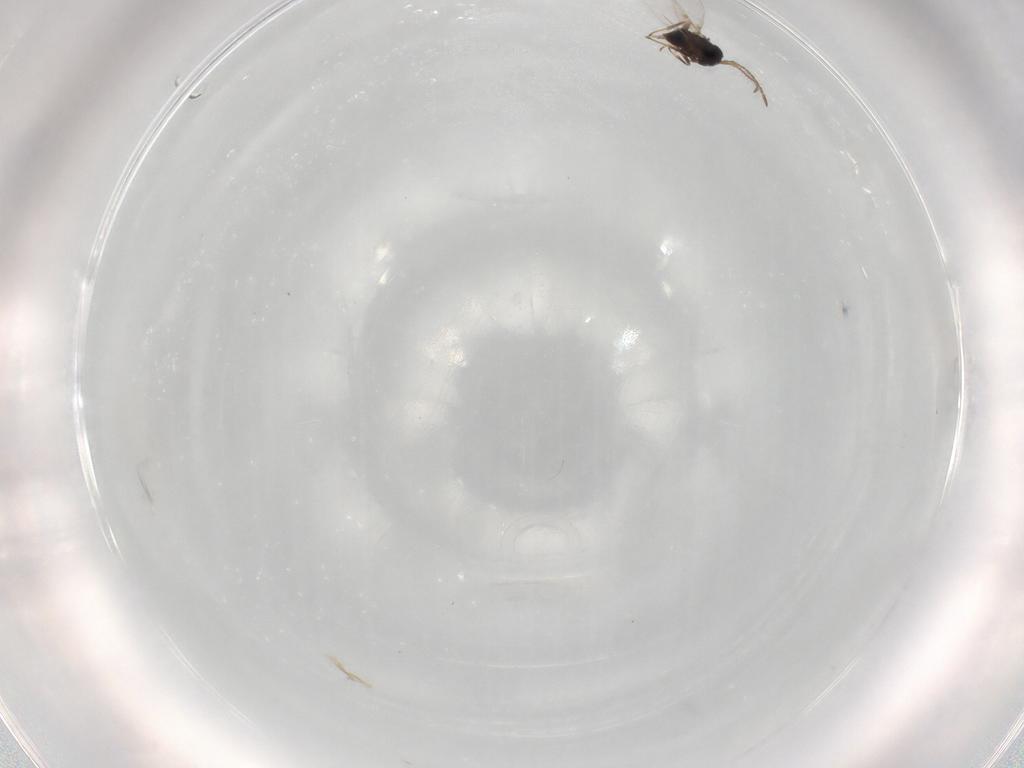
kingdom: Animalia
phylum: Arthropoda
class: Insecta
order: Hymenoptera
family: Encyrtidae
